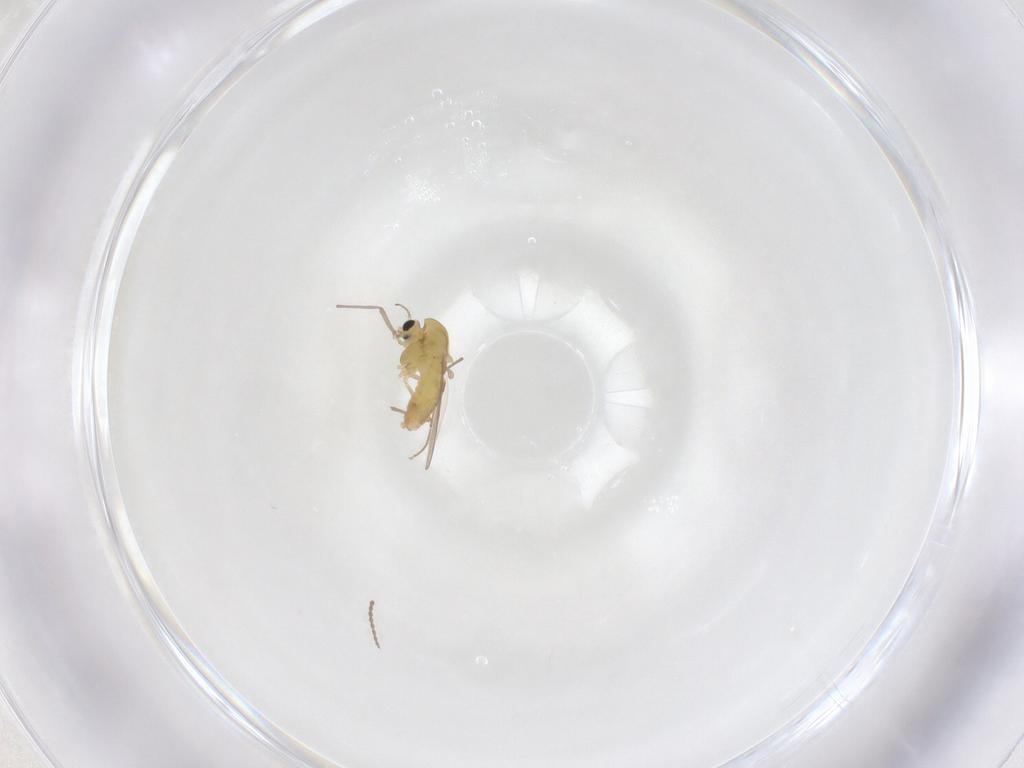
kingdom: Animalia
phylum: Arthropoda
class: Insecta
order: Diptera
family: Limoniidae
